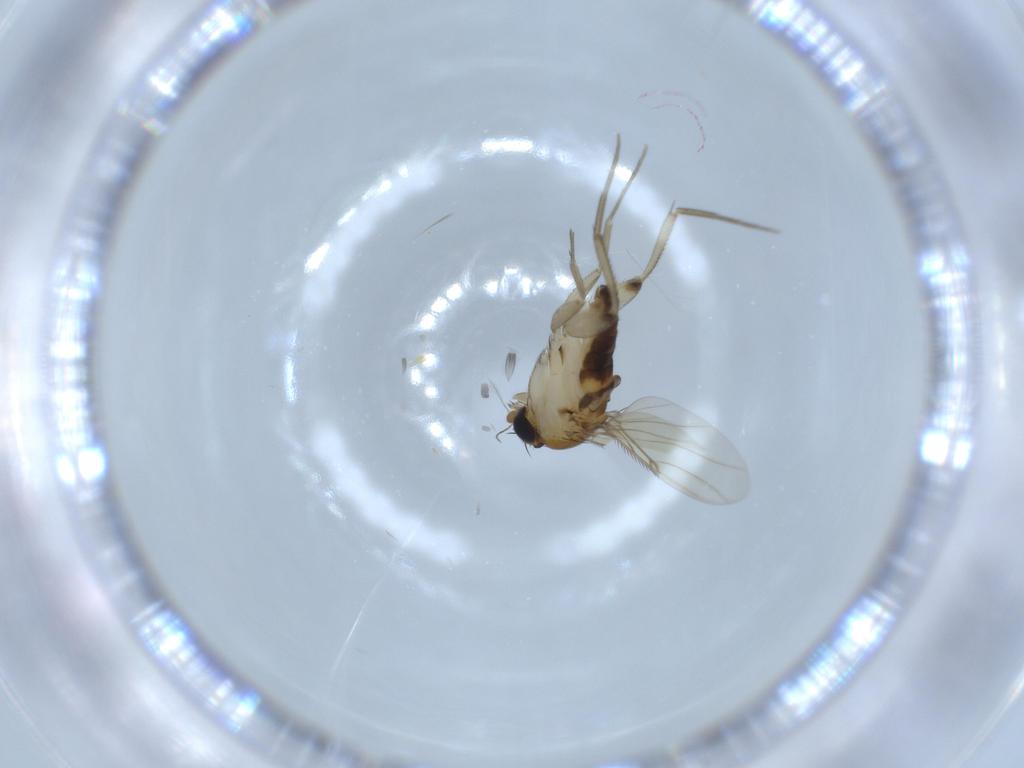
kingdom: Animalia
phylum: Arthropoda
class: Insecta
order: Diptera
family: Phoridae
